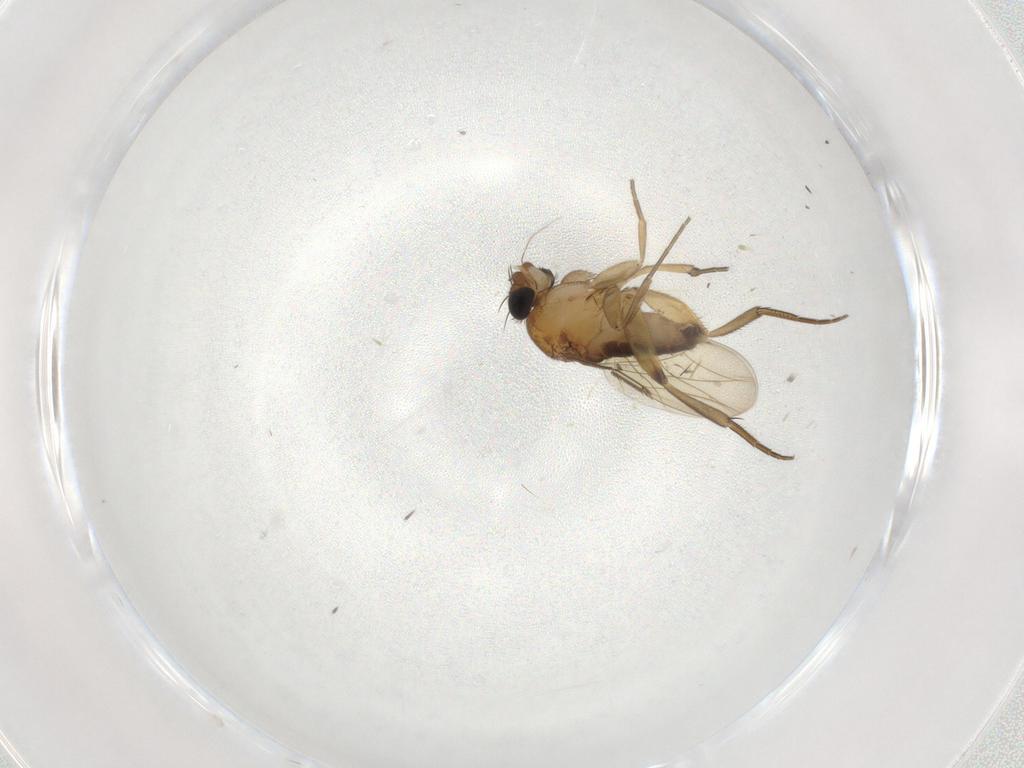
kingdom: Animalia
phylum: Arthropoda
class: Insecta
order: Diptera
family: Phoridae
